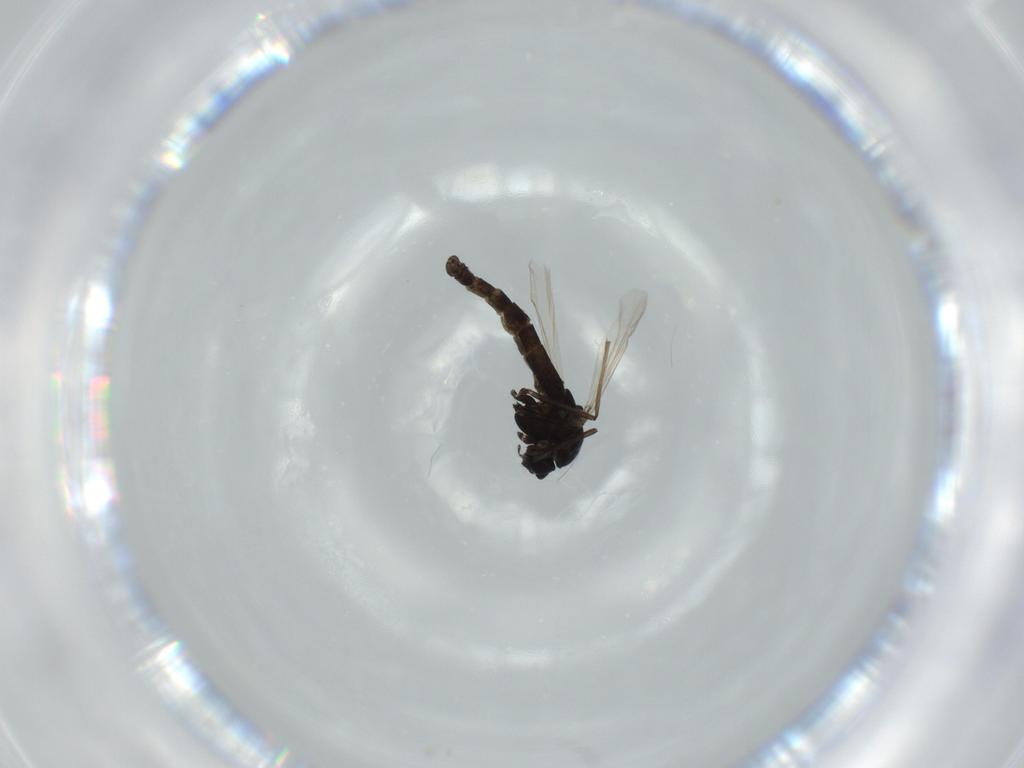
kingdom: Animalia
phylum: Arthropoda
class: Insecta
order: Diptera
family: Chironomidae
